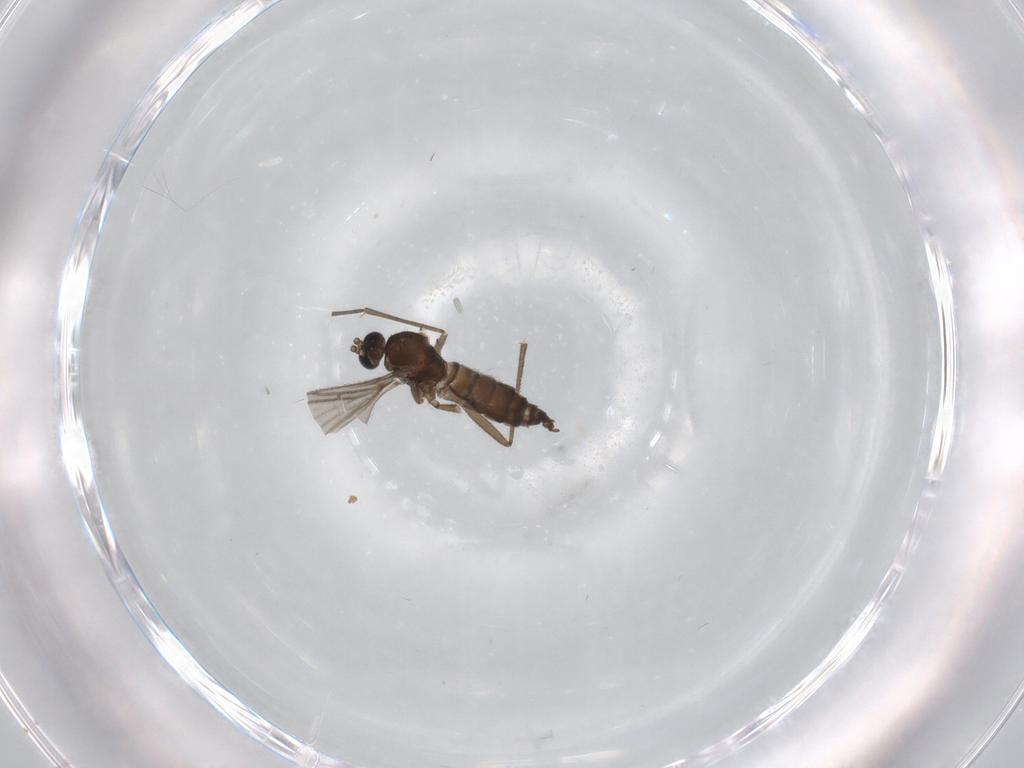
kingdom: Animalia
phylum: Arthropoda
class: Insecta
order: Diptera
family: Sciaridae
